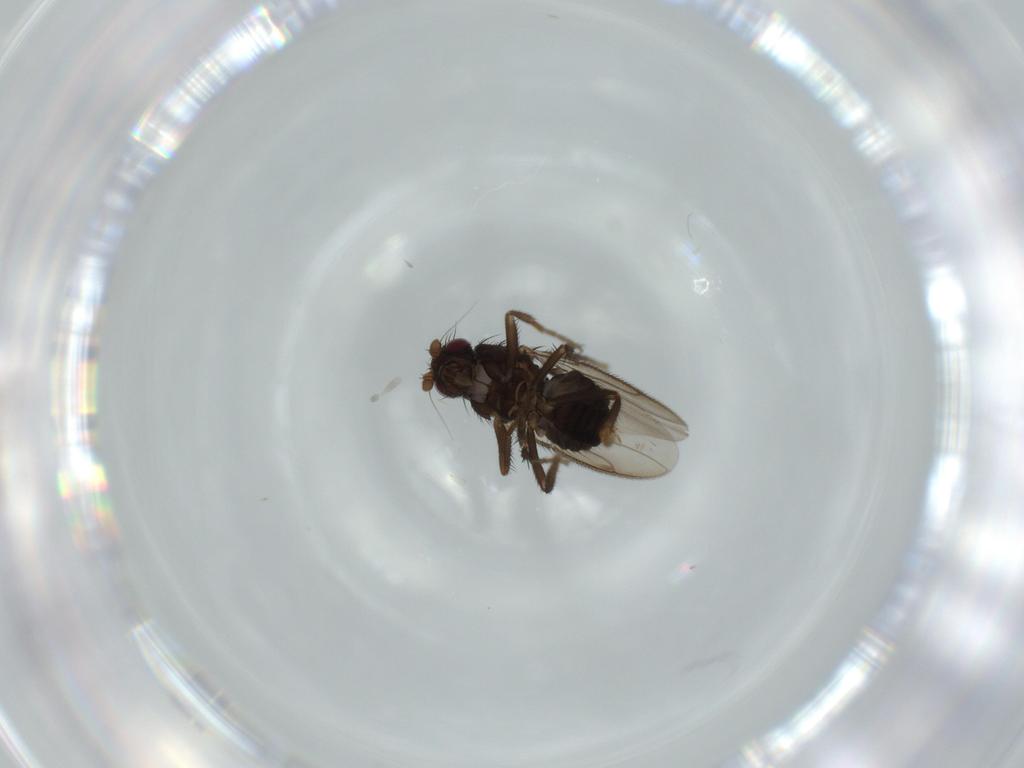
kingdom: Animalia
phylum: Arthropoda
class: Insecta
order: Diptera
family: Sphaeroceridae
